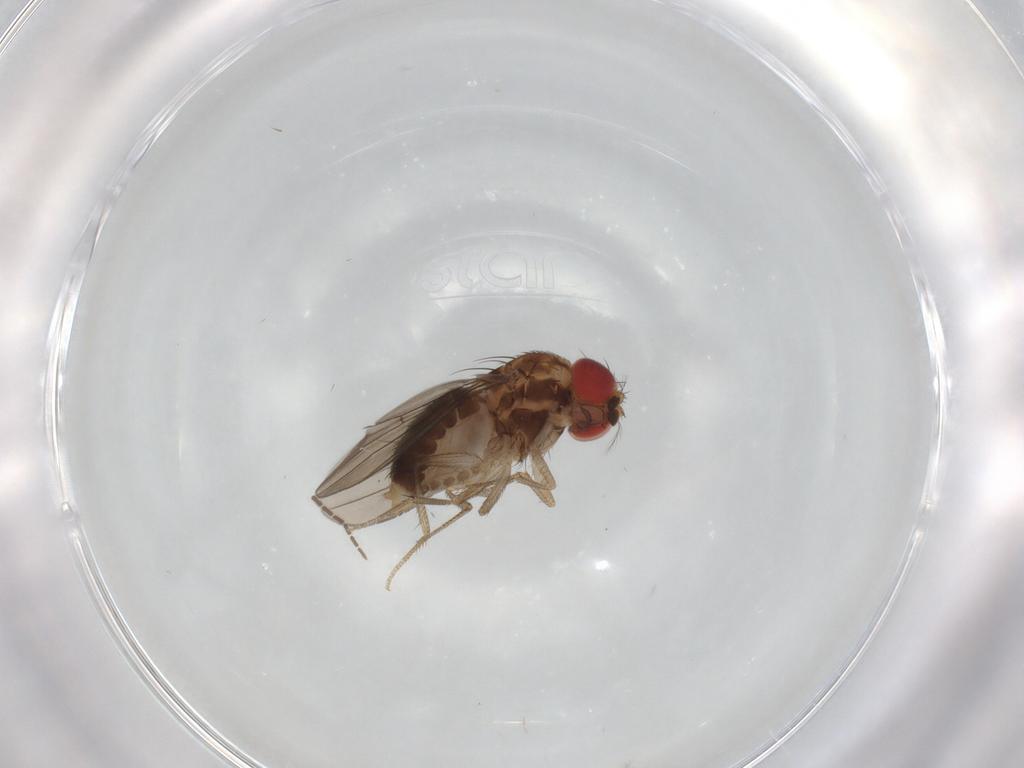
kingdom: Animalia
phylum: Arthropoda
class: Insecta
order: Diptera
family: Drosophilidae
